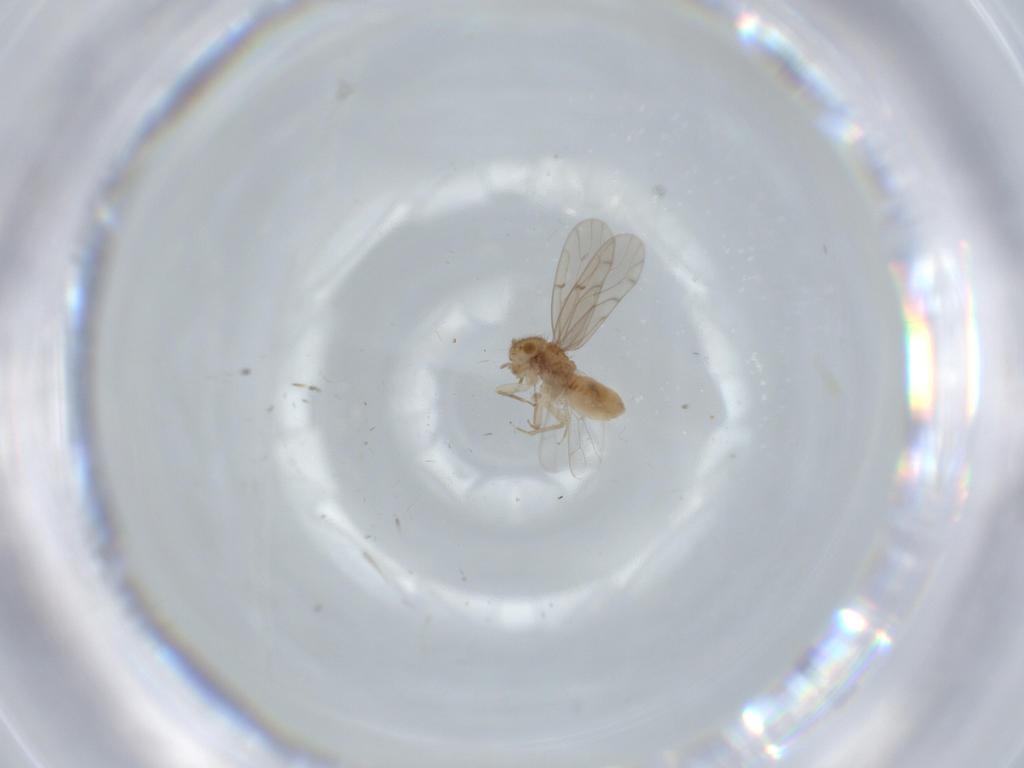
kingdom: Animalia
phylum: Arthropoda
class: Insecta
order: Psocodea
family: Ectopsocidae
